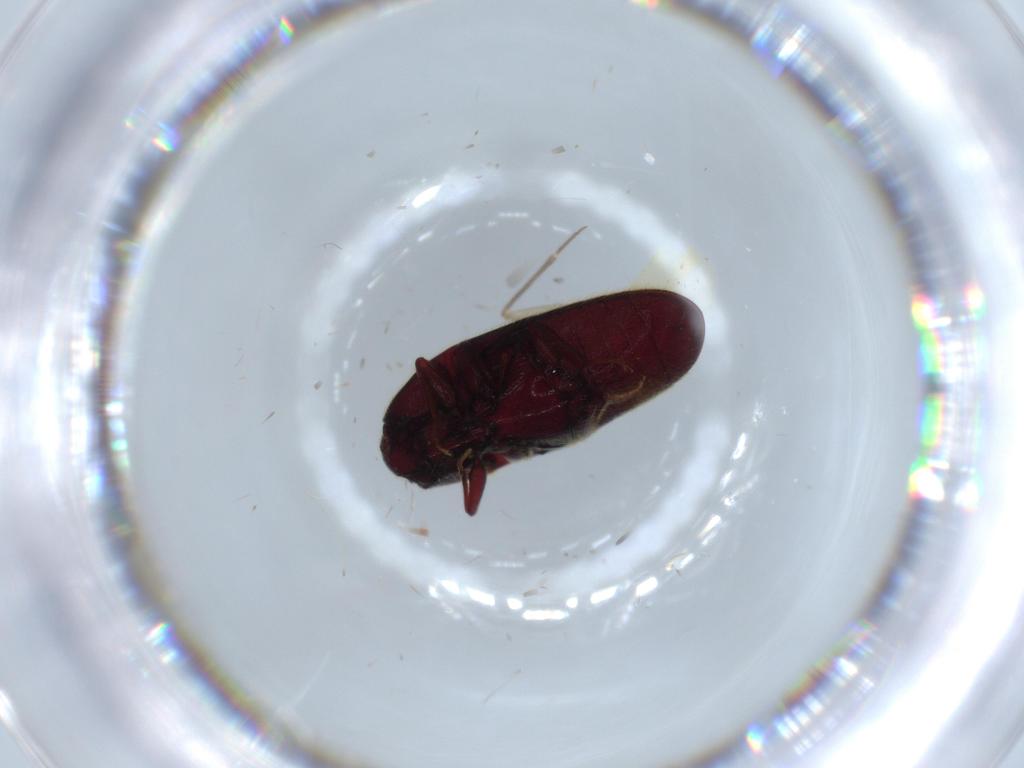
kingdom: Animalia
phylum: Arthropoda
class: Insecta
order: Coleoptera
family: Throscidae
